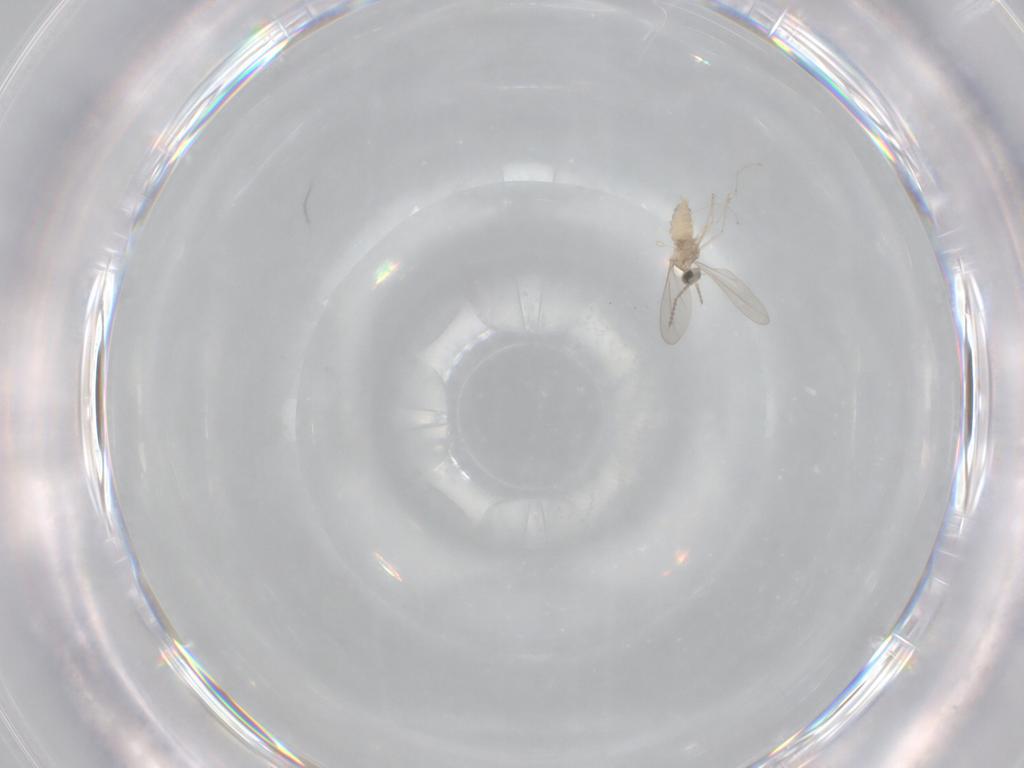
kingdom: Animalia
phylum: Arthropoda
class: Insecta
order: Diptera
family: Cecidomyiidae
